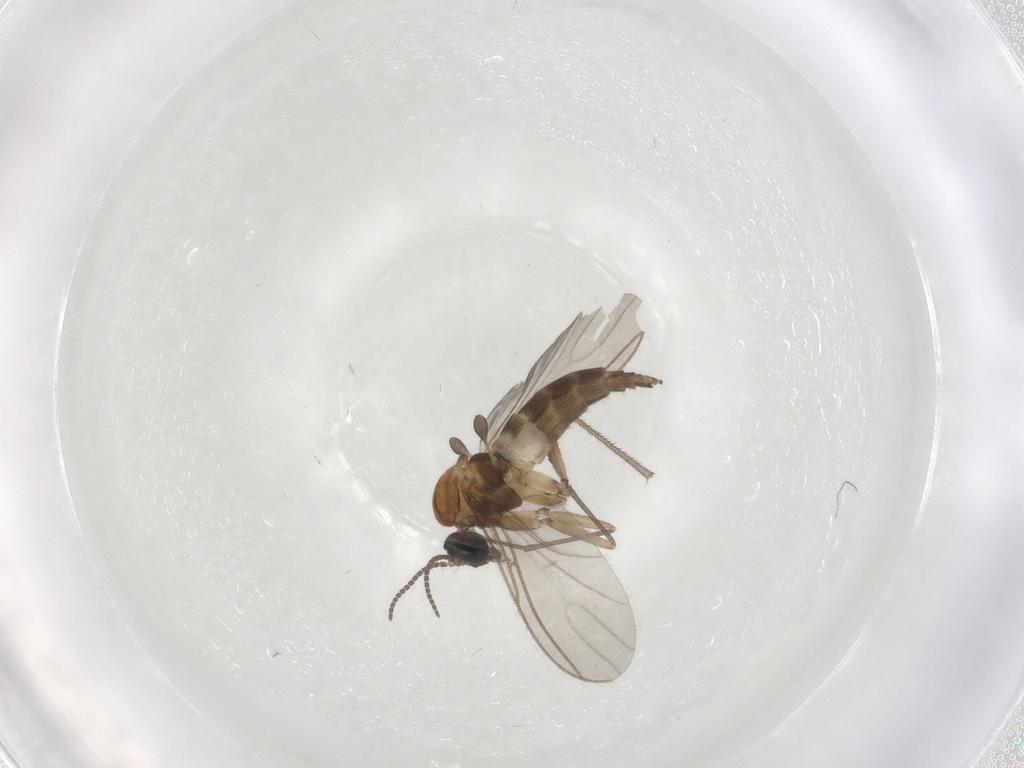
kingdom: Animalia
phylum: Arthropoda
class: Insecta
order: Diptera
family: Sciaridae
